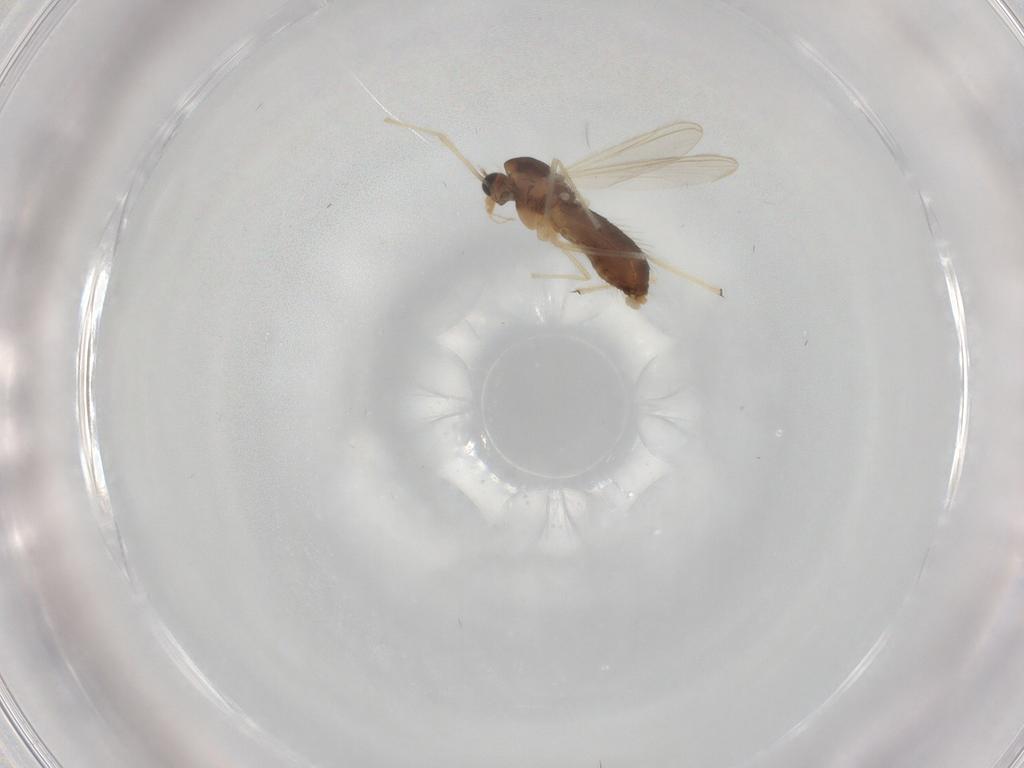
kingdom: Animalia
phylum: Arthropoda
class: Insecta
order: Diptera
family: Chironomidae
